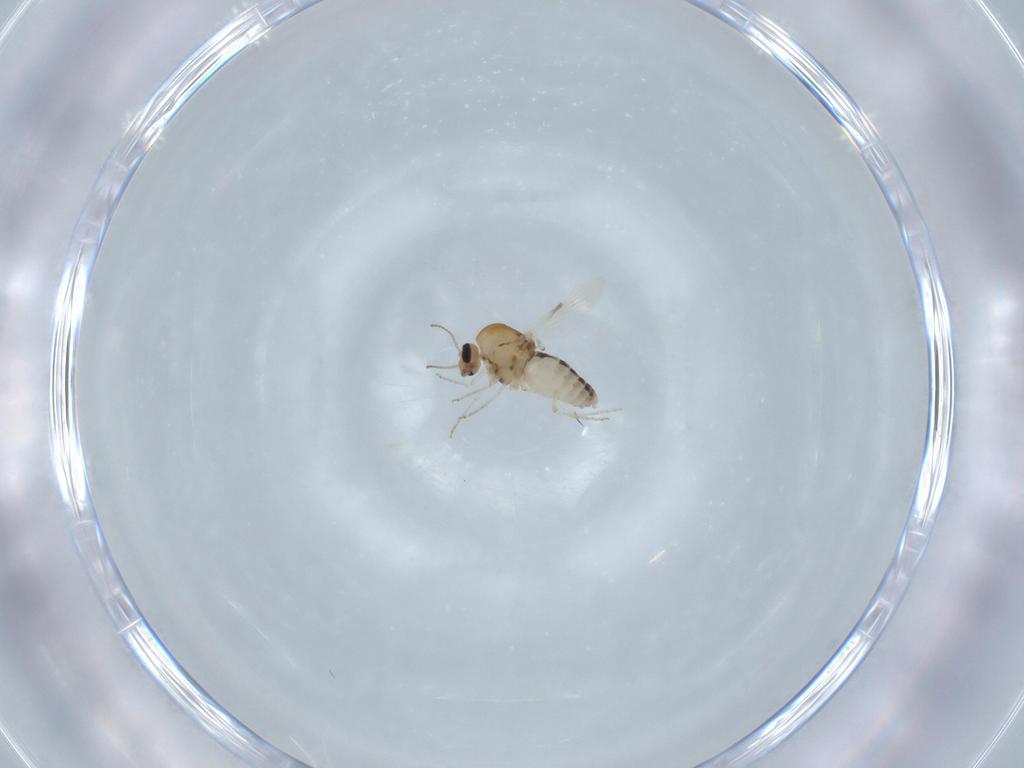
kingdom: Animalia
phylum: Arthropoda
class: Insecta
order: Diptera
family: Ceratopogonidae
